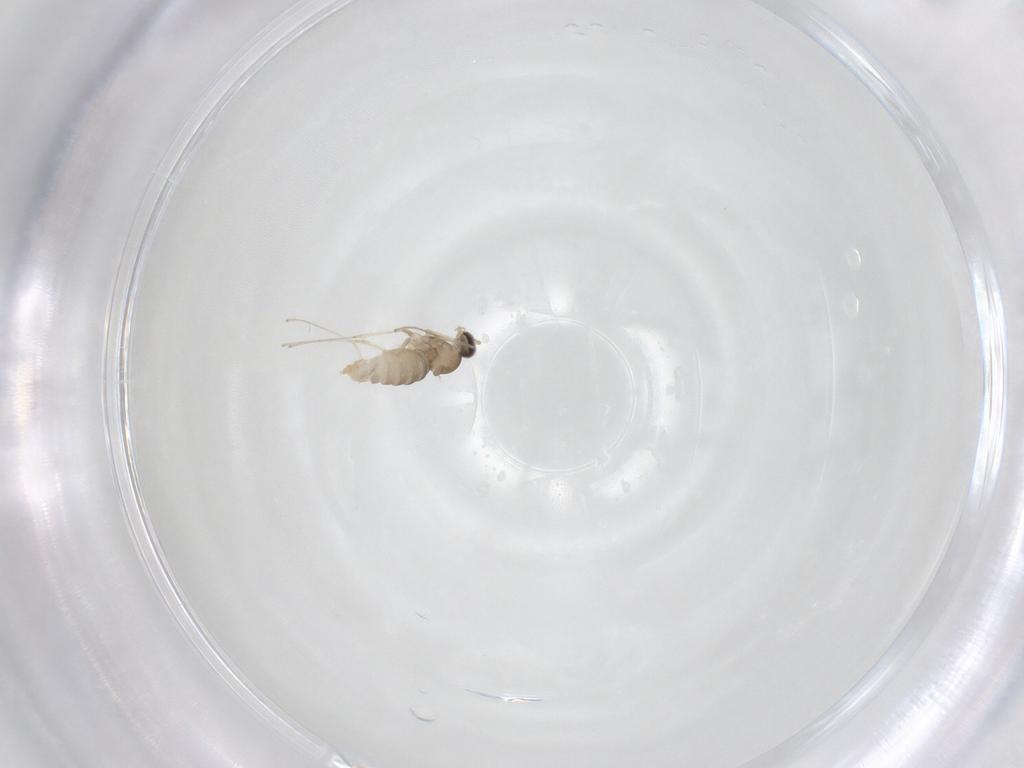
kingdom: Animalia
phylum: Arthropoda
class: Insecta
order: Diptera
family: Cecidomyiidae
